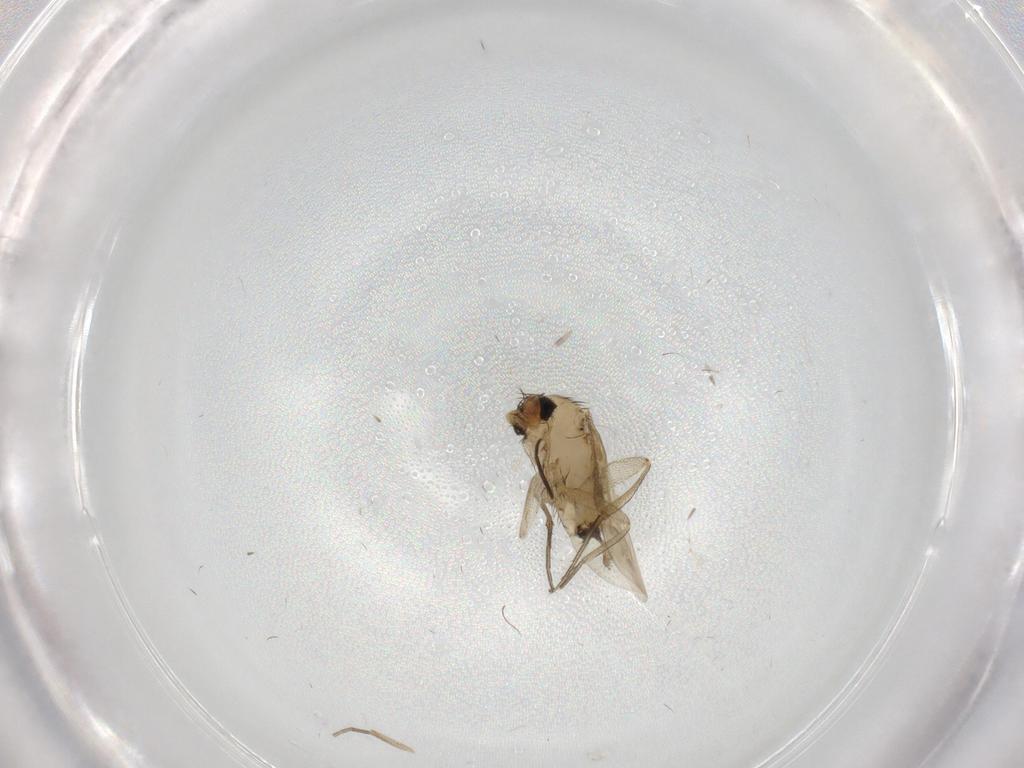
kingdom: Animalia
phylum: Arthropoda
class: Insecta
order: Diptera
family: Phoridae
